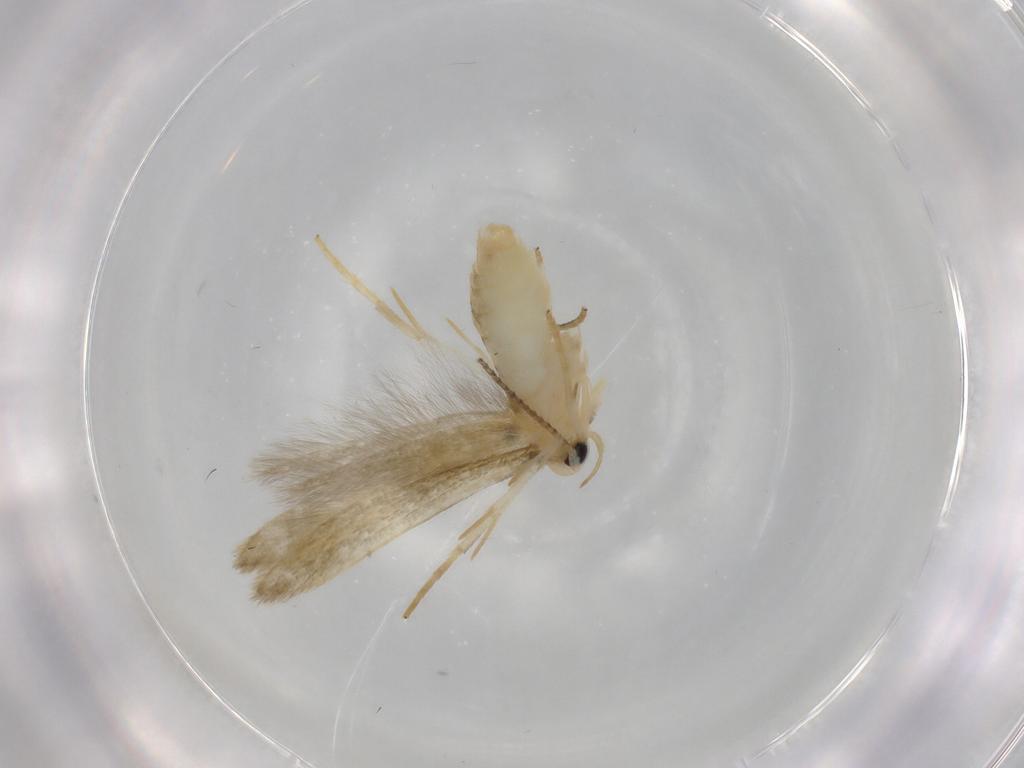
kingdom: Animalia
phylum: Arthropoda
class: Insecta
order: Lepidoptera
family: Stathmopodidae
